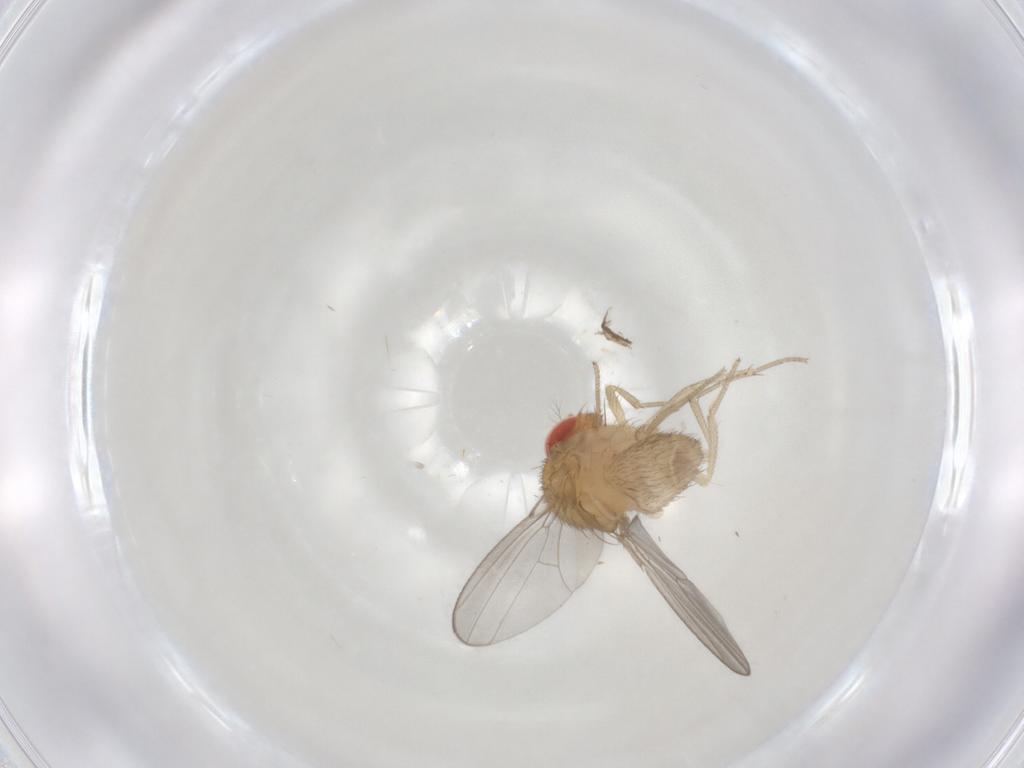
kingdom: Animalia
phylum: Arthropoda
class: Insecta
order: Diptera
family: Drosophilidae
